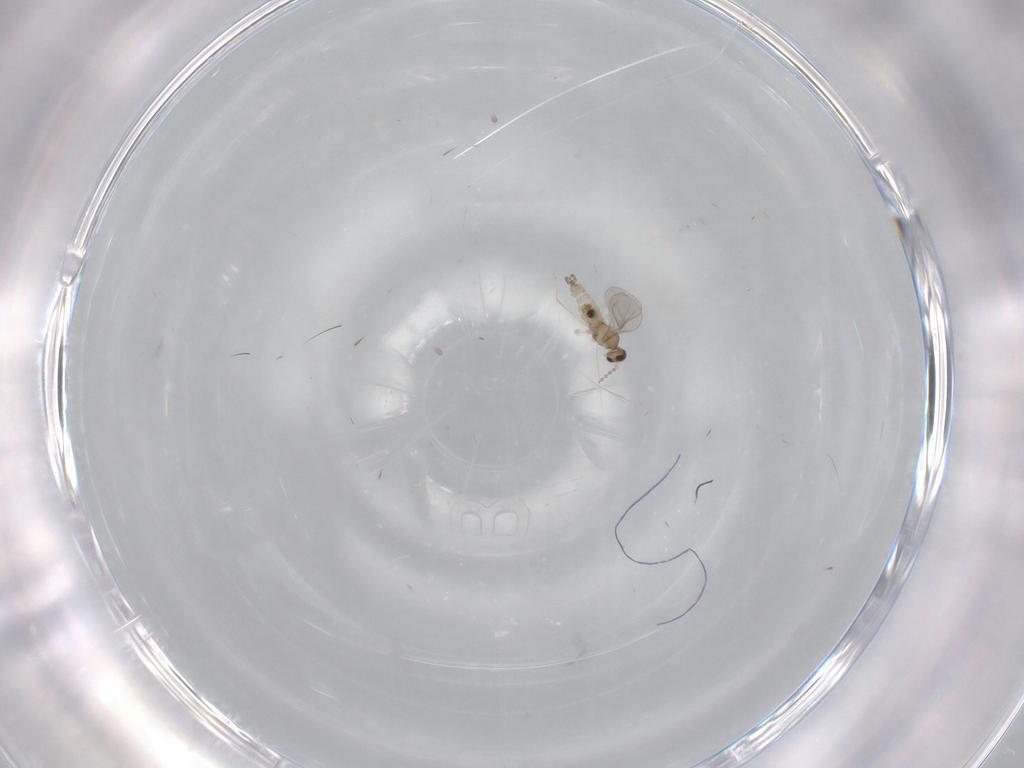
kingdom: Animalia
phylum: Arthropoda
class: Insecta
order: Diptera
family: Cecidomyiidae
